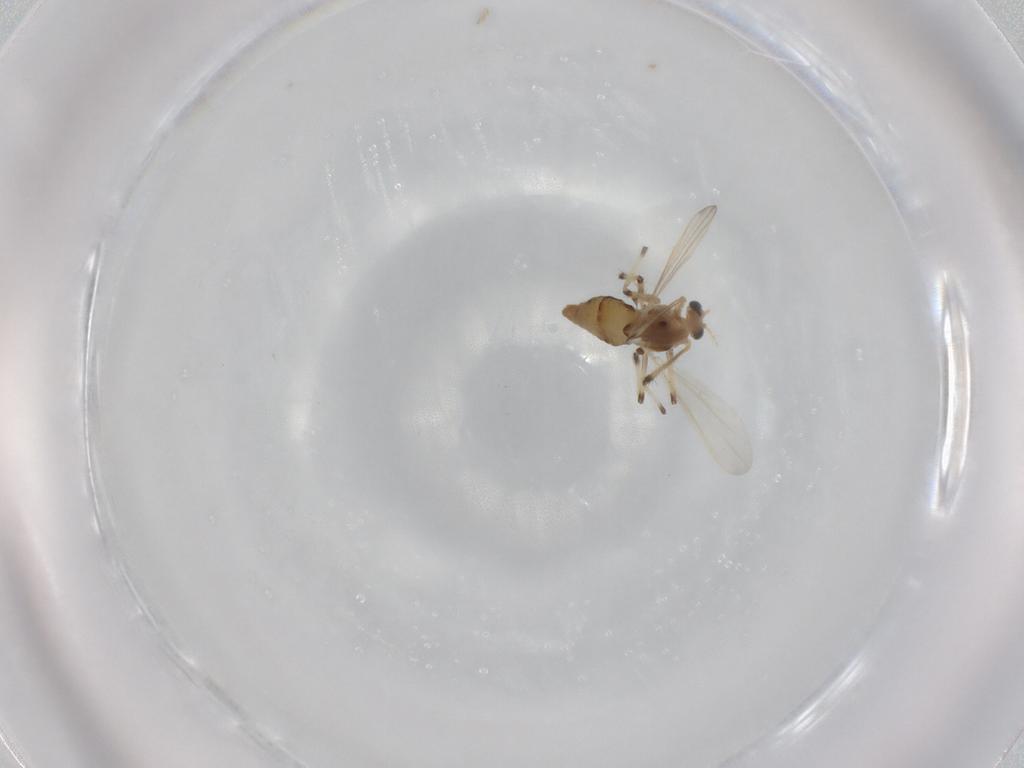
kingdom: Animalia
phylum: Arthropoda
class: Insecta
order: Diptera
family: Chironomidae
